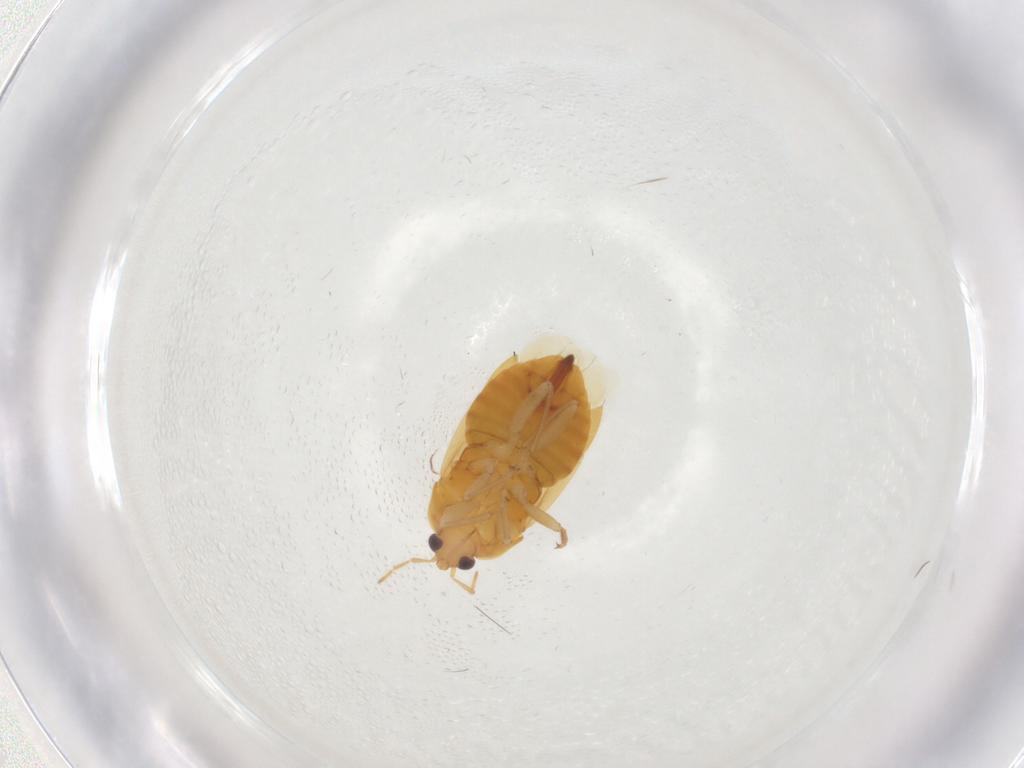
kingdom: Animalia
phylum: Arthropoda
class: Insecta
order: Hemiptera
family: Anthocoridae
